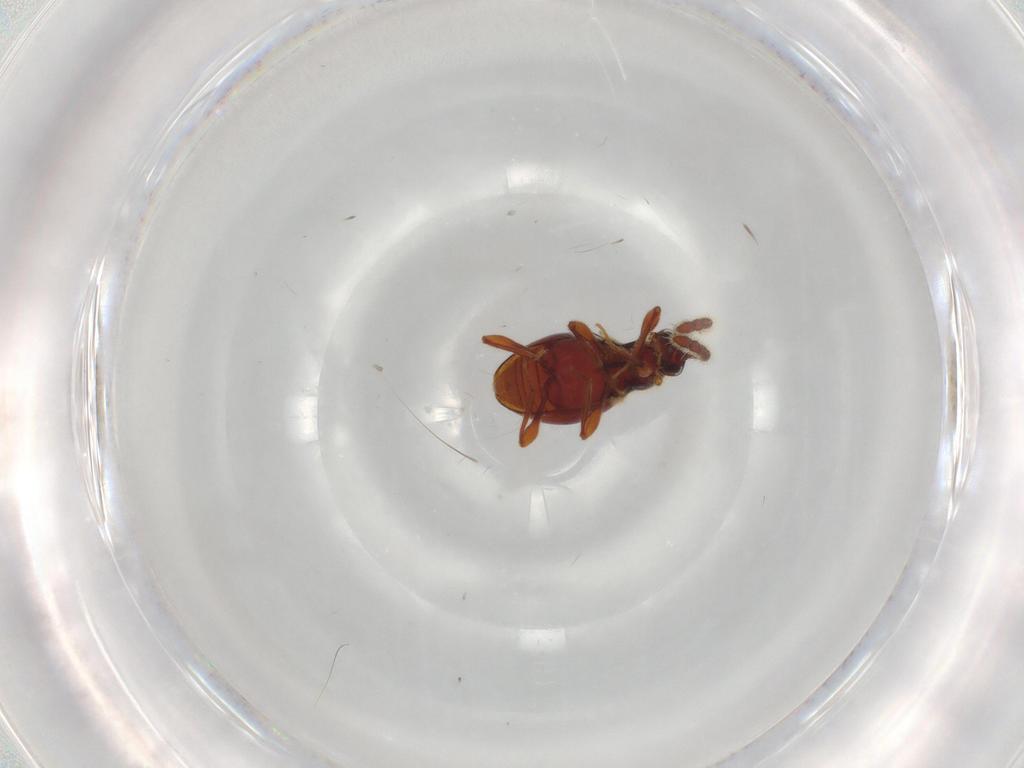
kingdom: Animalia
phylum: Arthropoda
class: Insecta
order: Coleoptera
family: Staphylinidae
